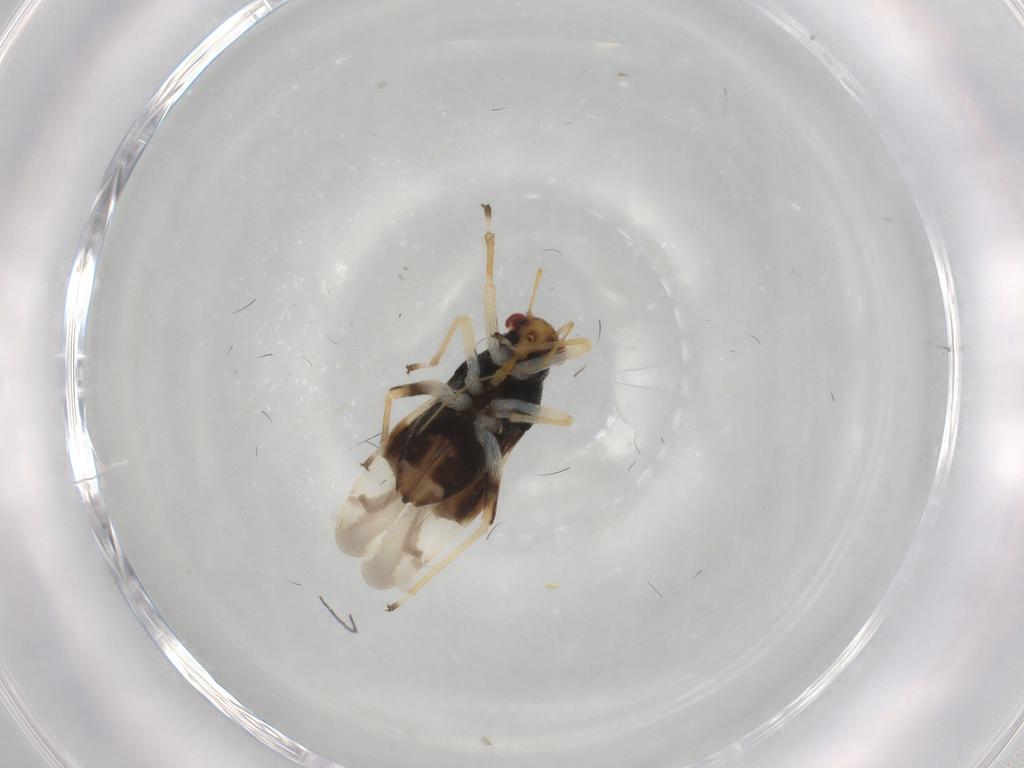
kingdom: Animalia
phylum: Arthropoda
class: Insecta
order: Hemiptera
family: Miridae
